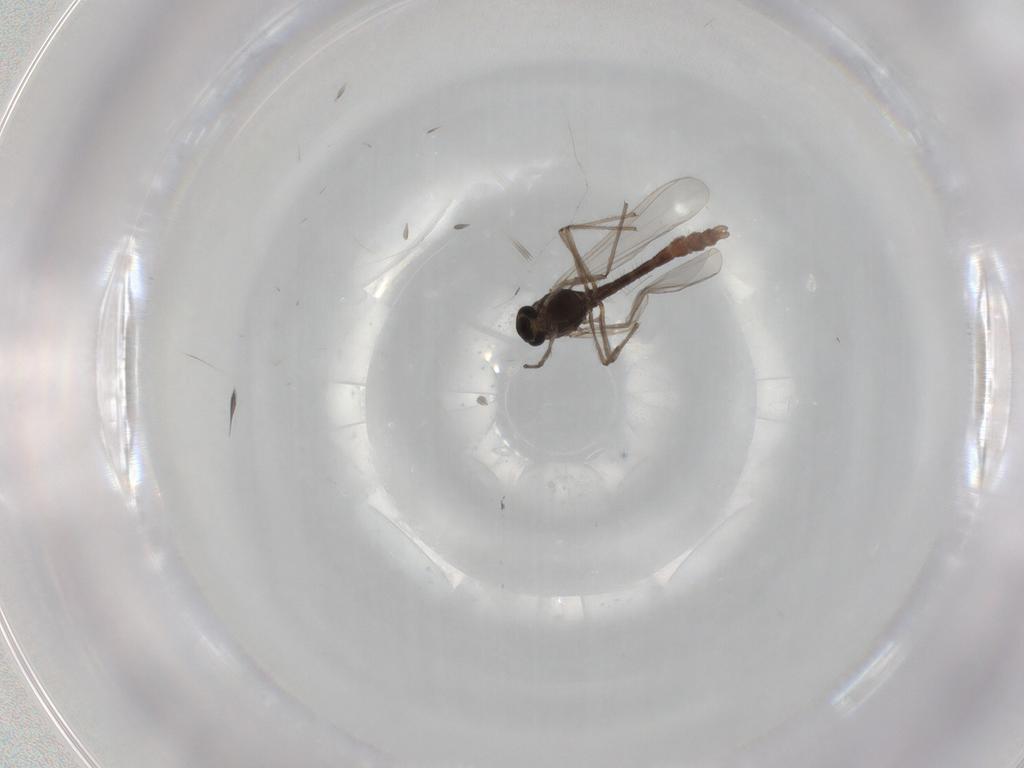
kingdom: Animalia
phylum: Arthropoda
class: Insecta
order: Diptera
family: Chironomidae
